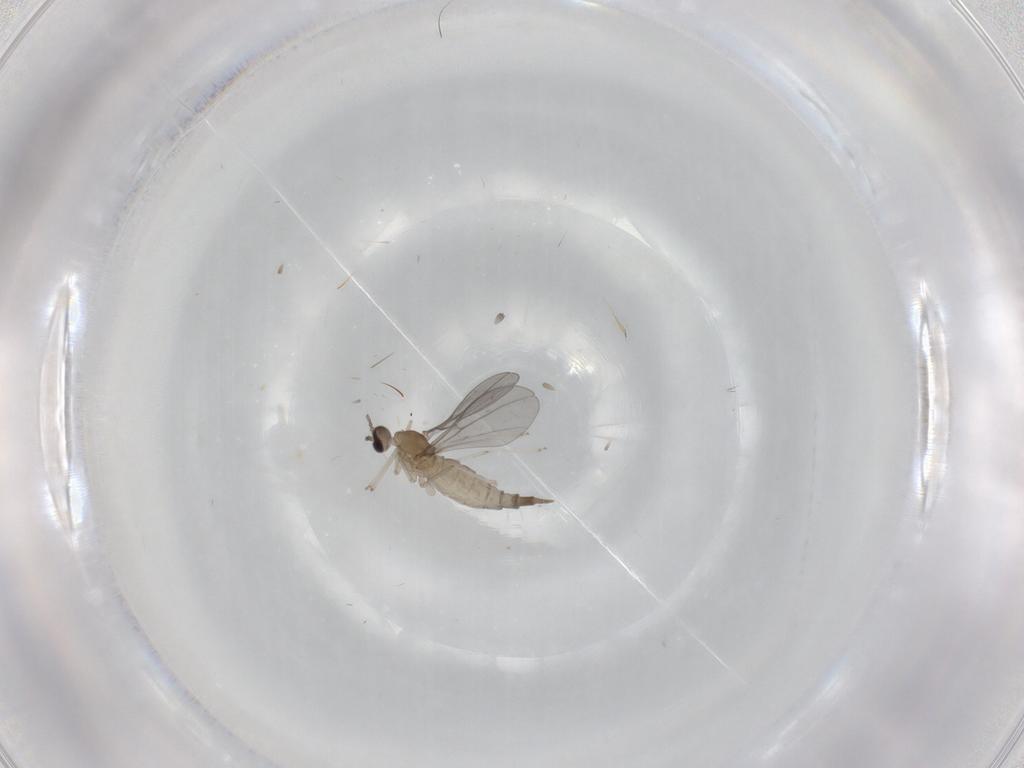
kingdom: Animalia
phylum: Arthropoda
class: Insecta
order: Diptera
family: Cecidomyiidae
